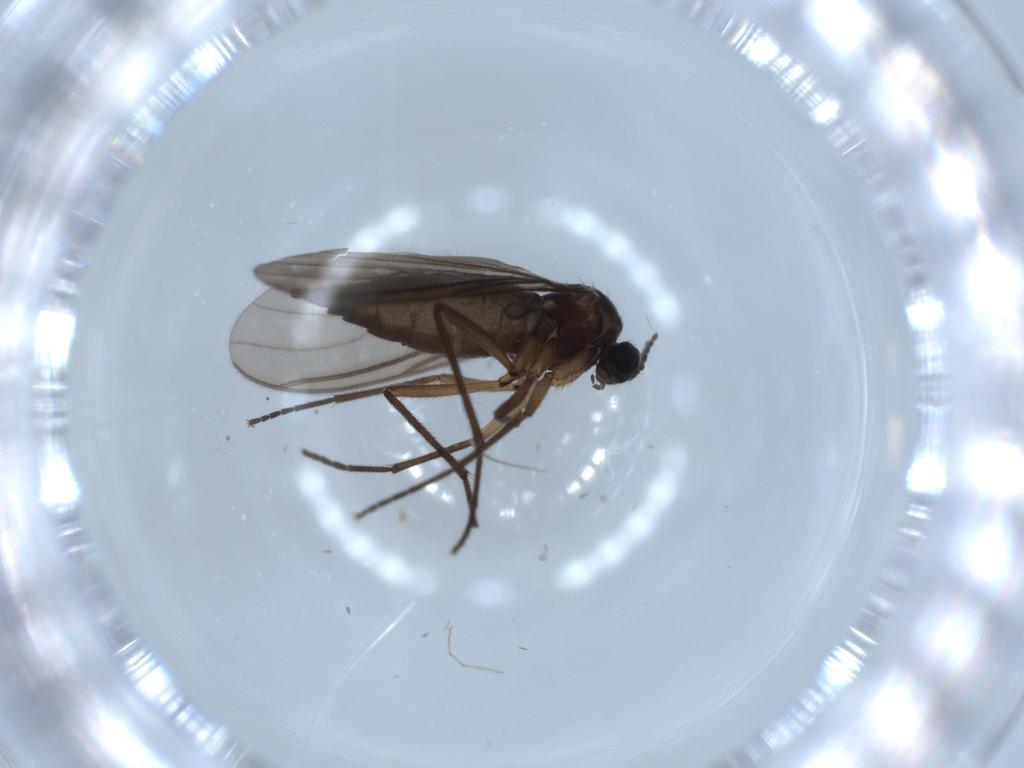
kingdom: Animalia
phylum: Arthropoda
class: Insecta
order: Diptera
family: Sciaridae
